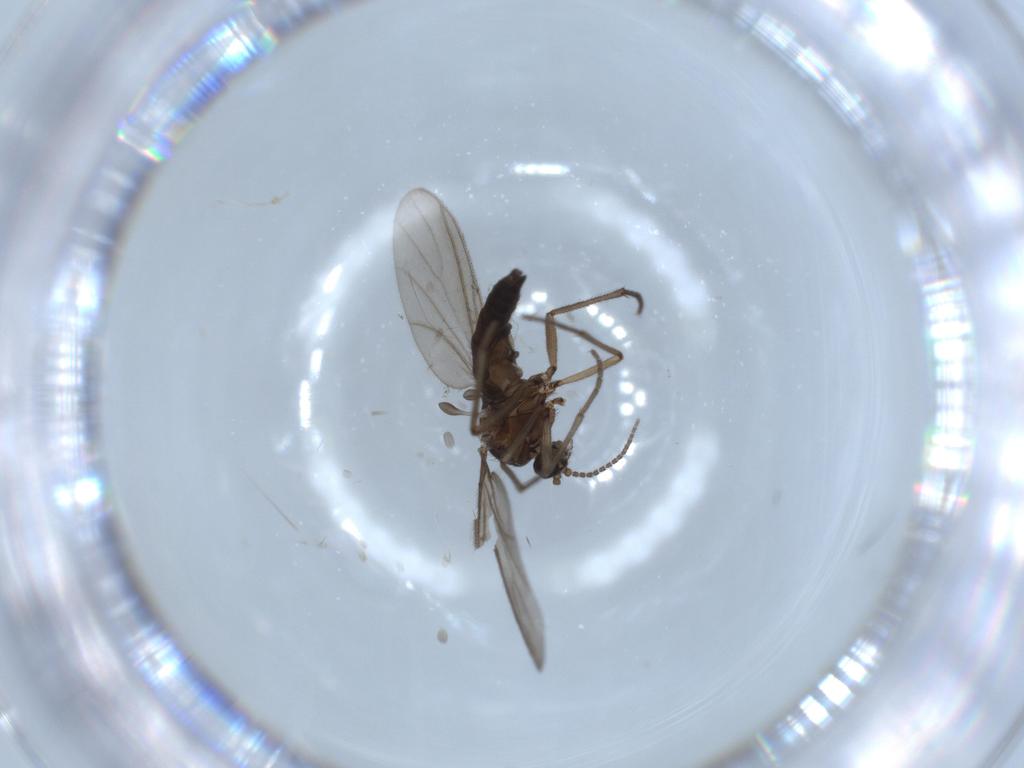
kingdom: Animalia
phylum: Arthropoda
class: Insecta
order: Diptera
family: Sciaridae
